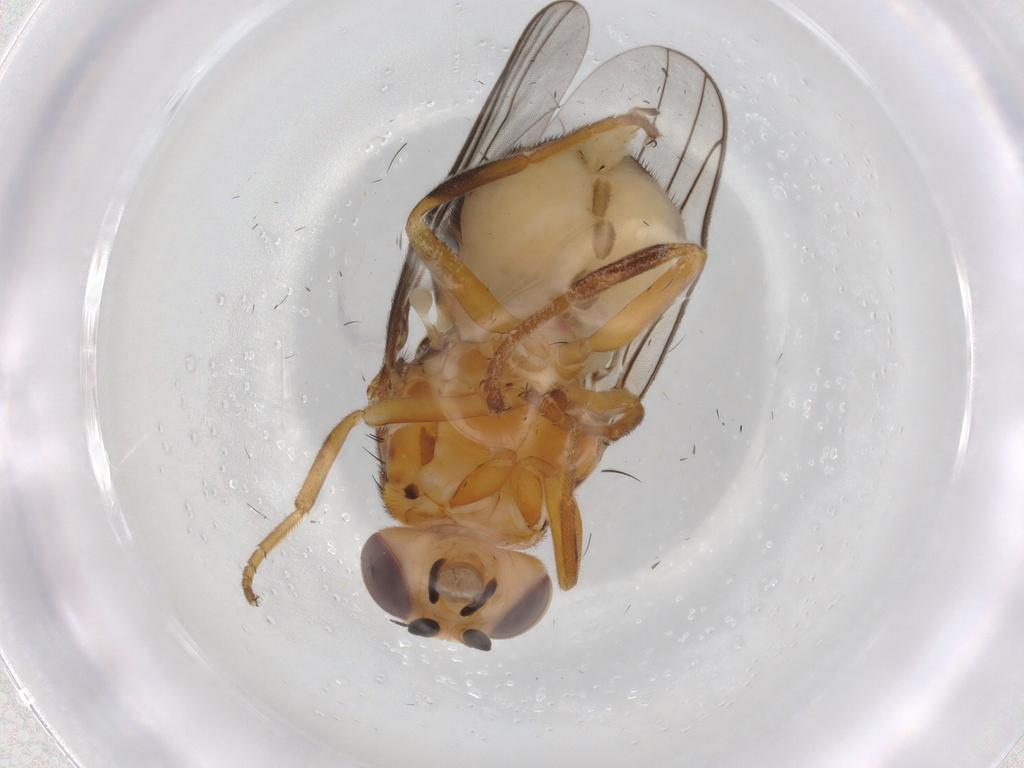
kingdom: Animalia
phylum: Arthropoda
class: Insecta
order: Diptera
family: Chloropidae
